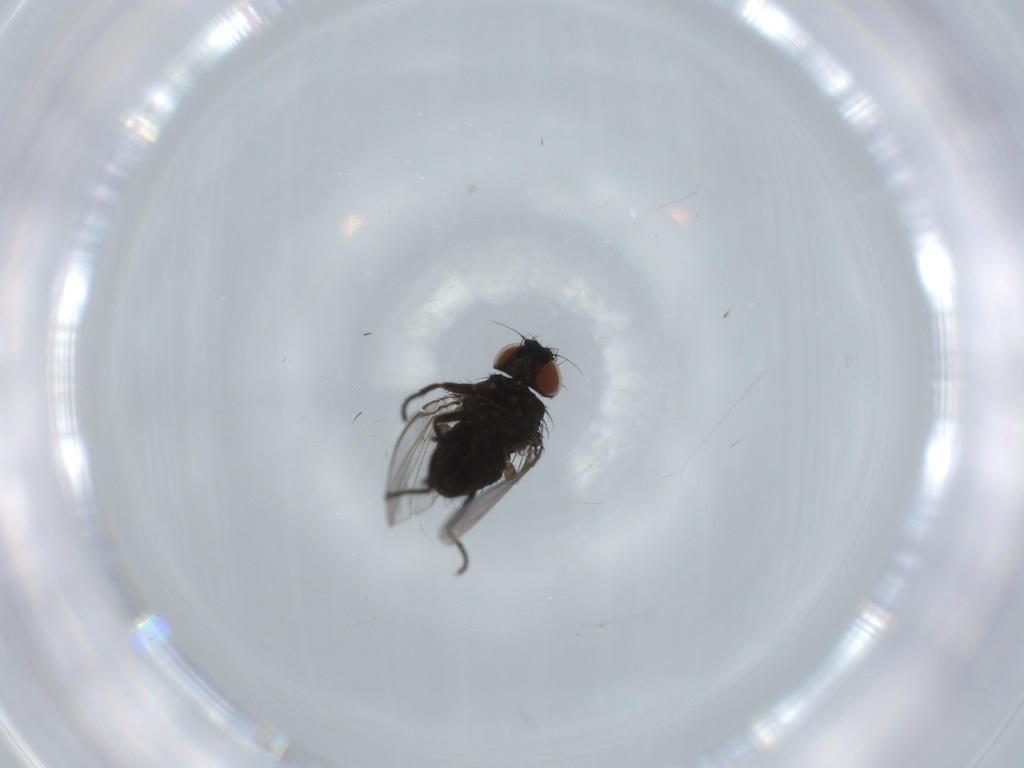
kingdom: Animalia
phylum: Arthropoda
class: Insecta
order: Diptera
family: Milichiidae
